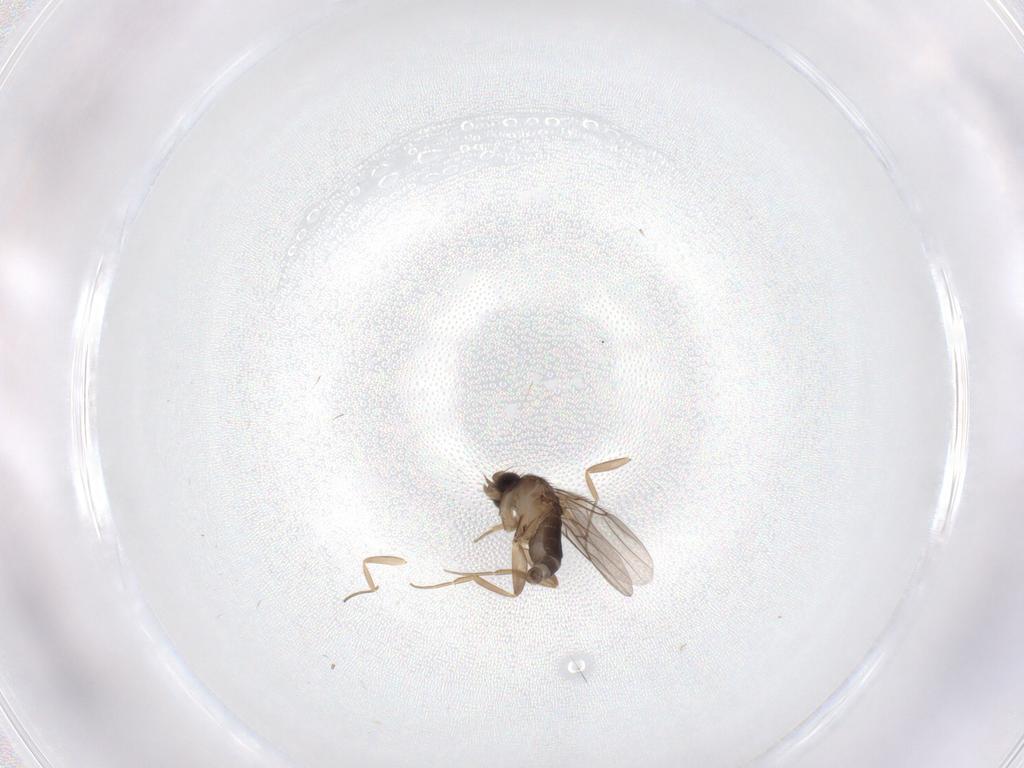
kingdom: Animalia
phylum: Arthropoda
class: Insecta
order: Diptera
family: Phoridae
